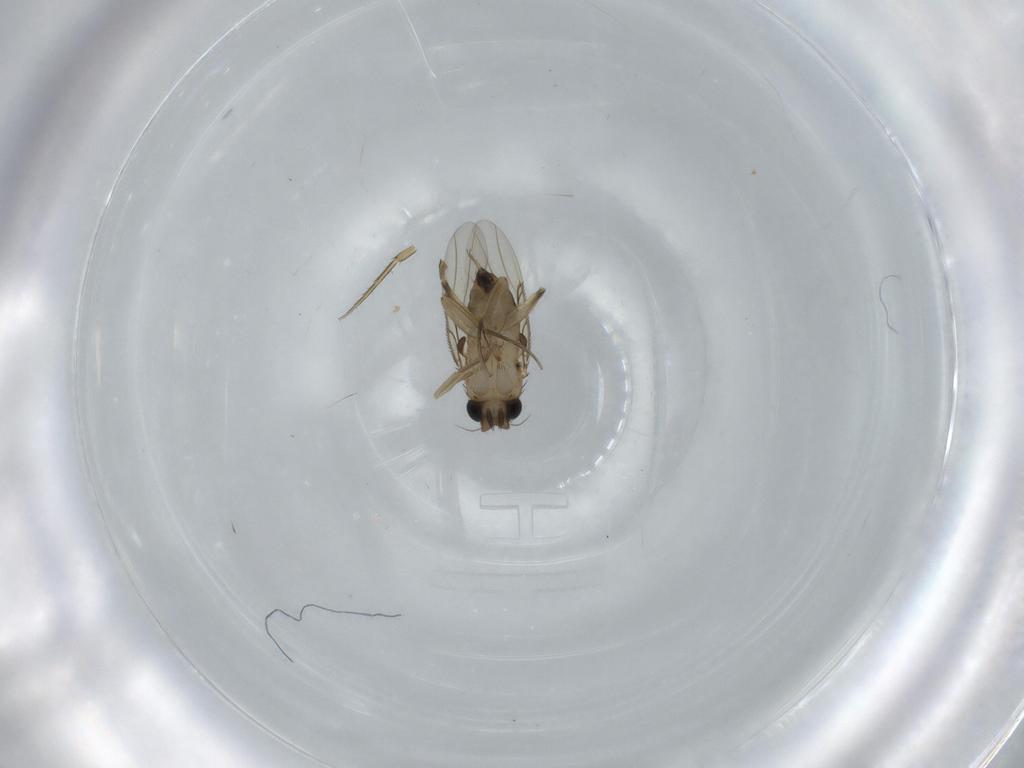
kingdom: Animalia
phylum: Arthropoda
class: Insecta
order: Diptera
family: Phoridae
